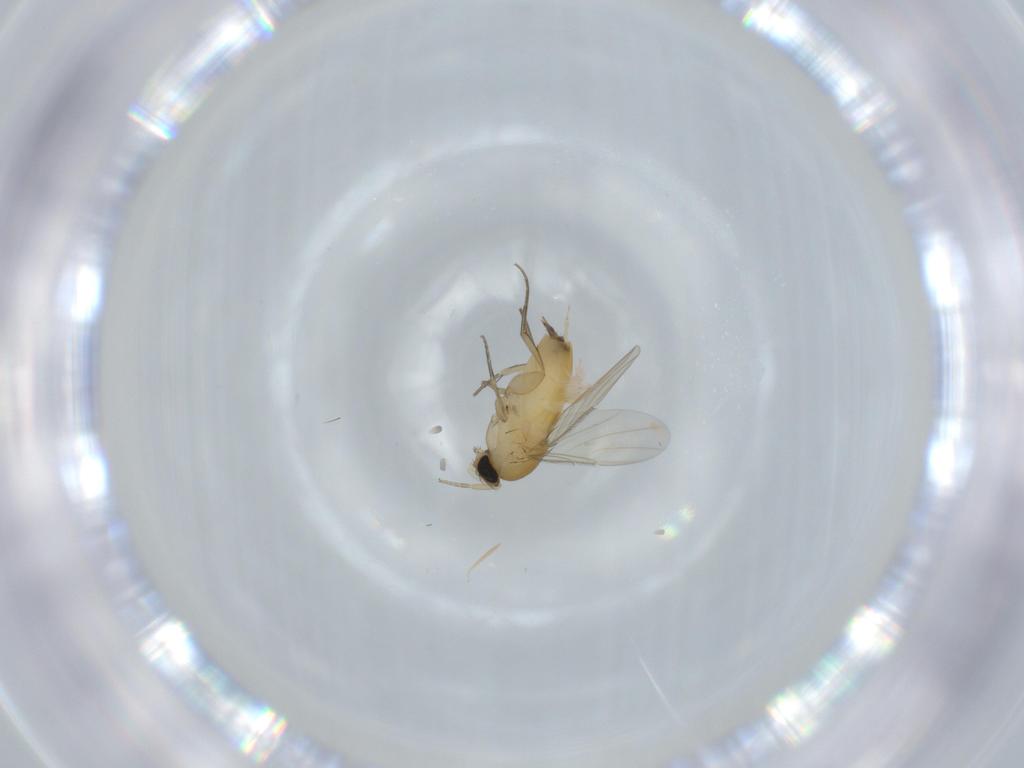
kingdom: Animalia
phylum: Arthropoda
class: Insecta
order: Diptera
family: Phoridae
